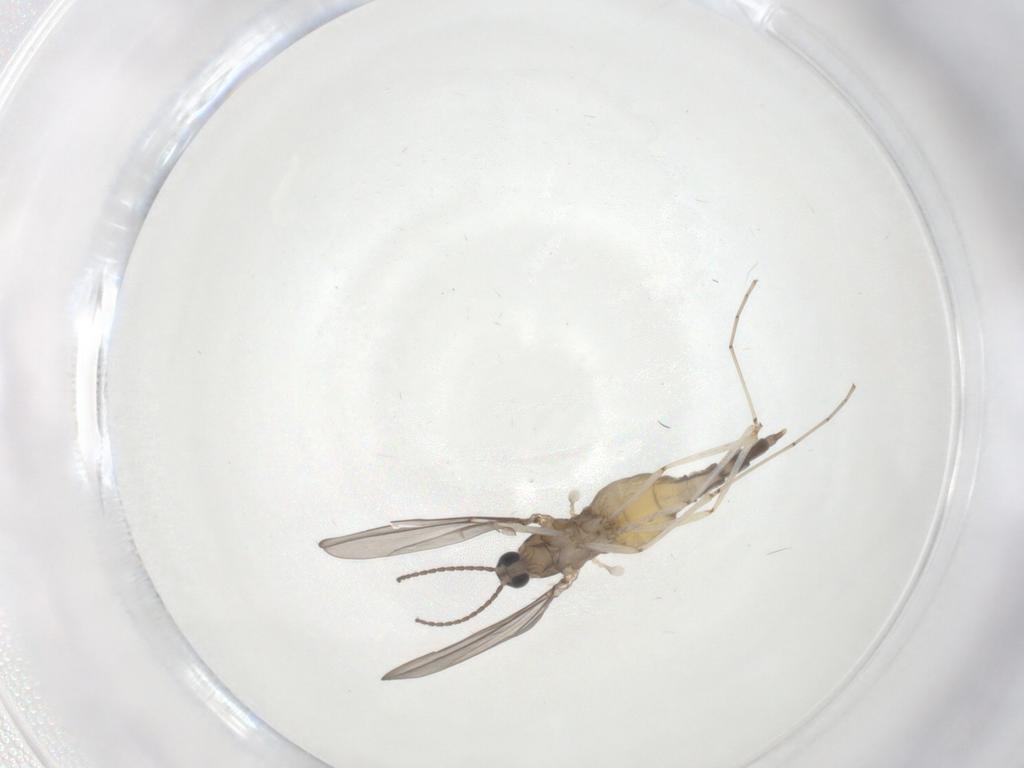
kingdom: Animalia
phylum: Arthropoda
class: Insecta
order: Diptera
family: Cecidomyiidae
